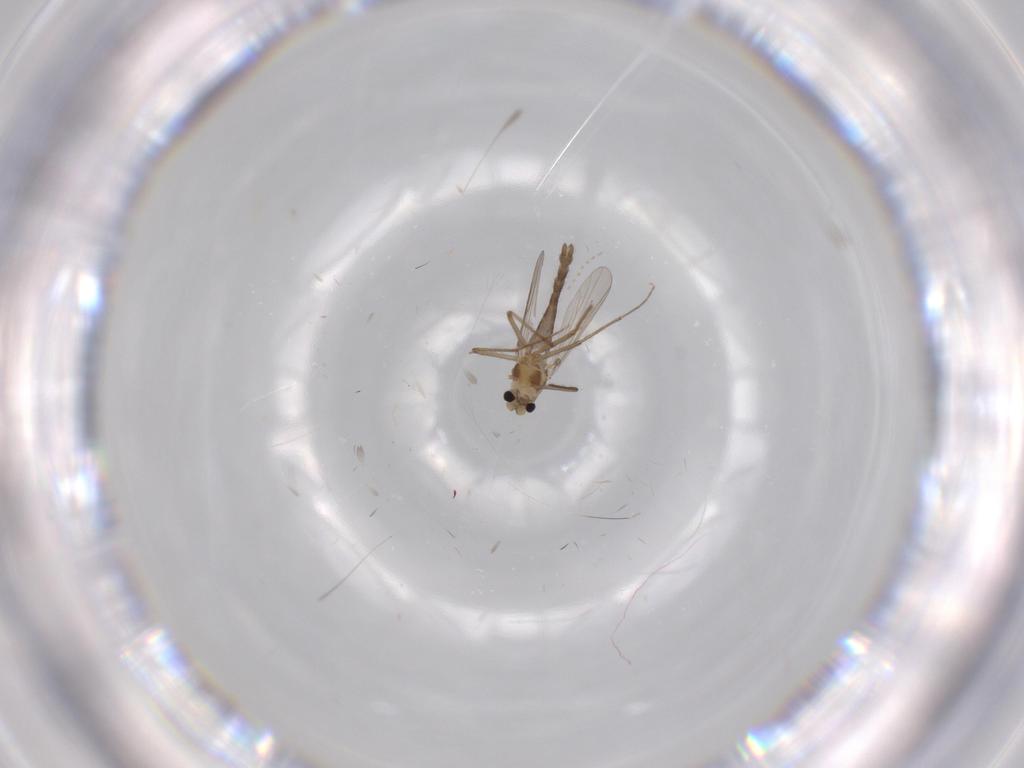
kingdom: Animalia
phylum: Arthropoda
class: Insecta
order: Diptera
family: Chironomidae
